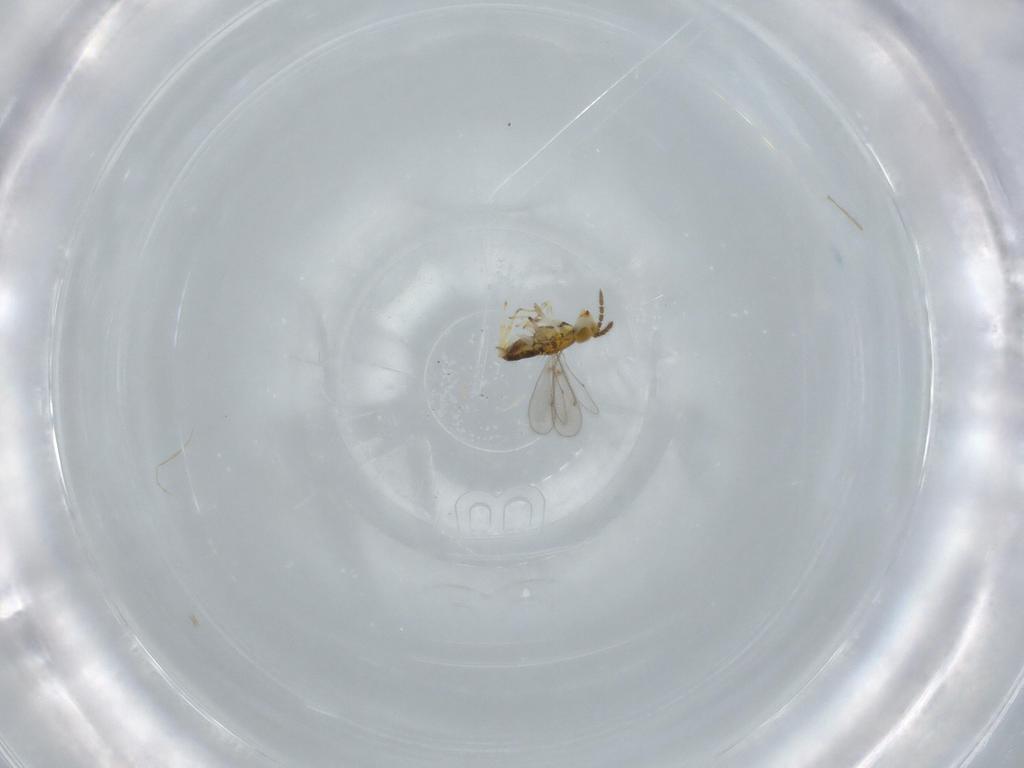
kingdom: Animalia
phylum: Arthropoda
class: Insecta
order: Hymenoptera
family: Aphelinidae
